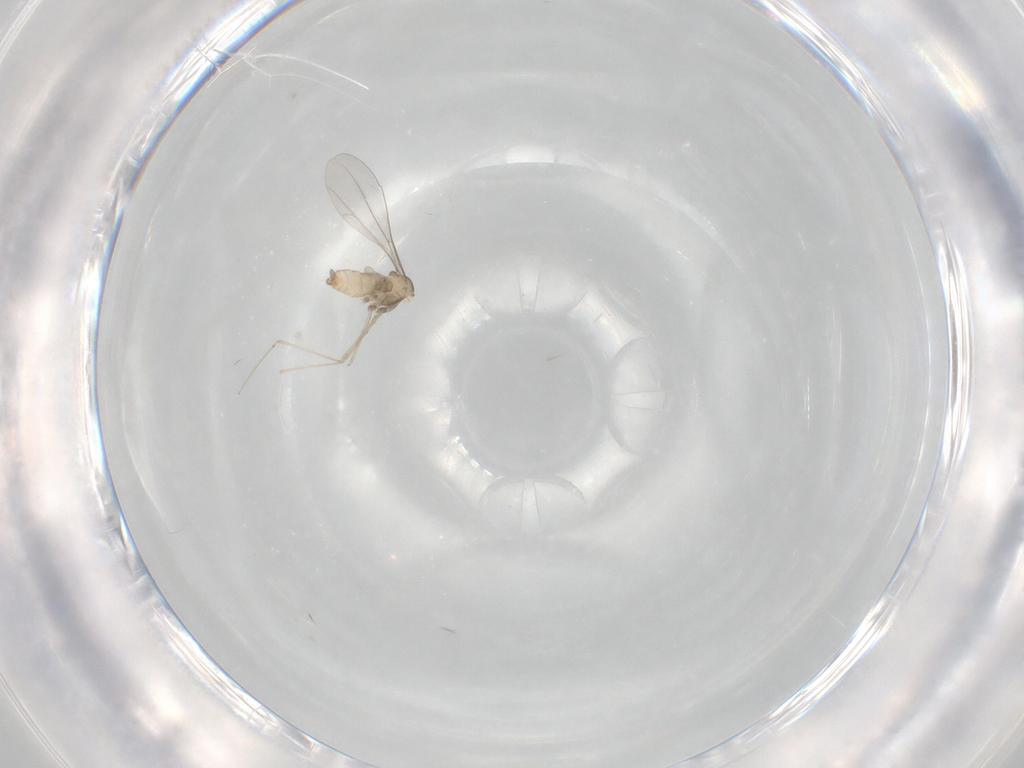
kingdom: Animalia
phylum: Arthropoda
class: Insecta
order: Diptera
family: Cecidomyiidae
